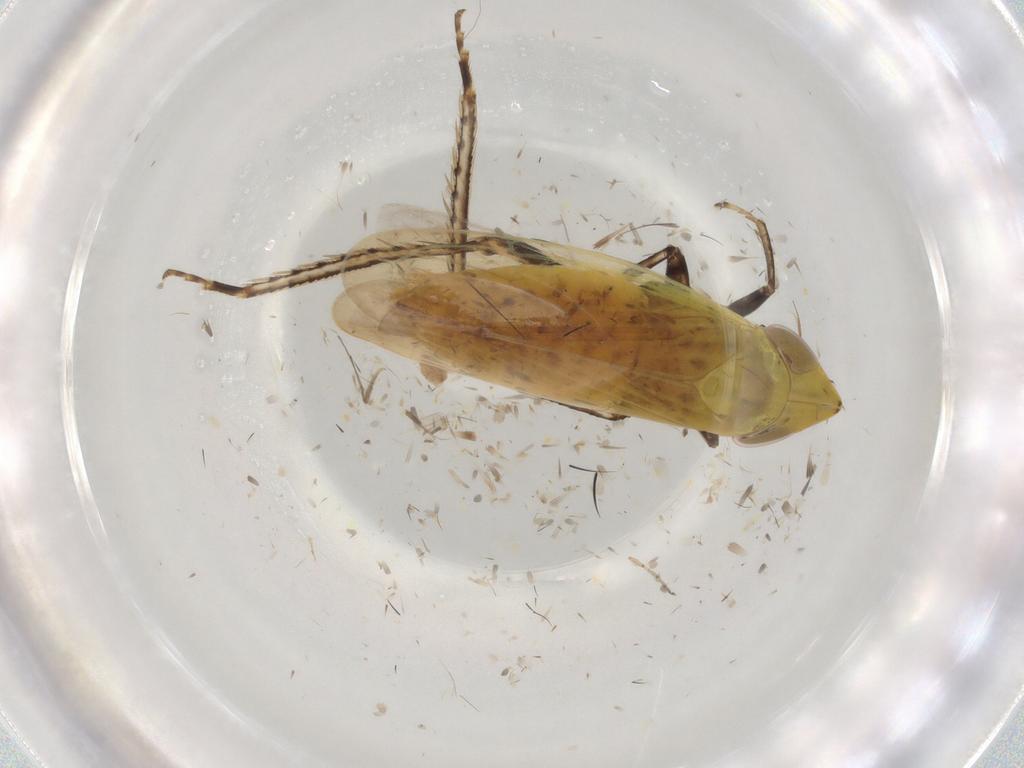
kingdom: Animalia
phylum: Arthropoda
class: Insecta
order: Hemiptera
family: Cicadellidae
